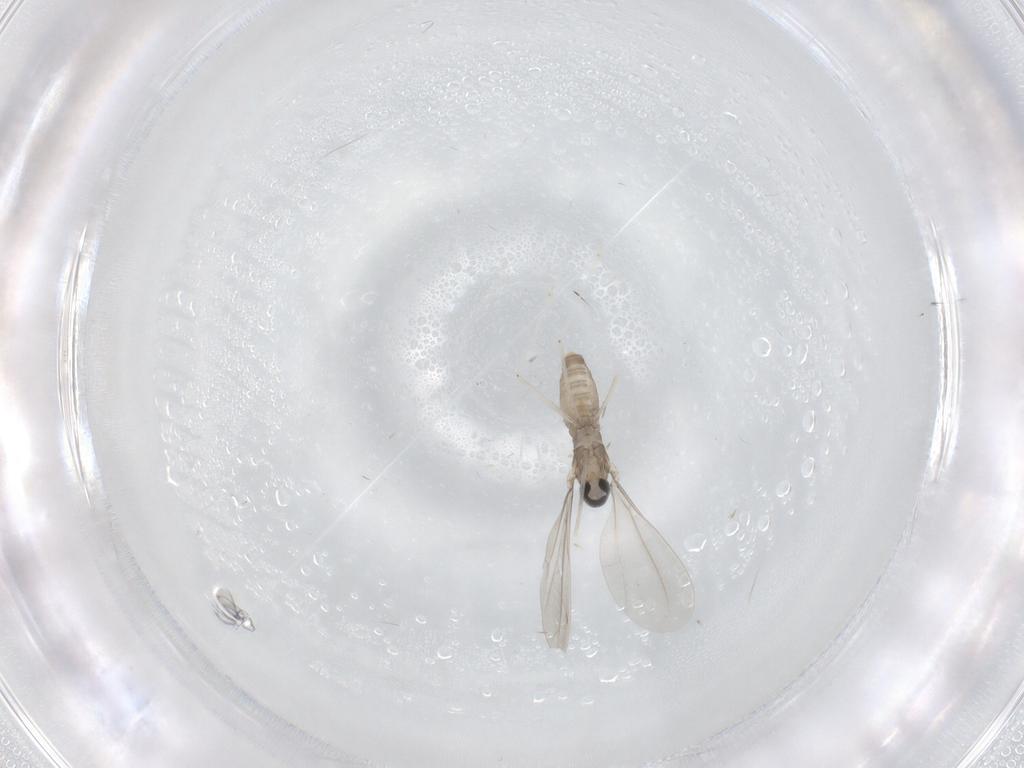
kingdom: Animalia
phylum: Arthropoda
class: Insecta
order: Diptera
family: Cecidomyiidae
